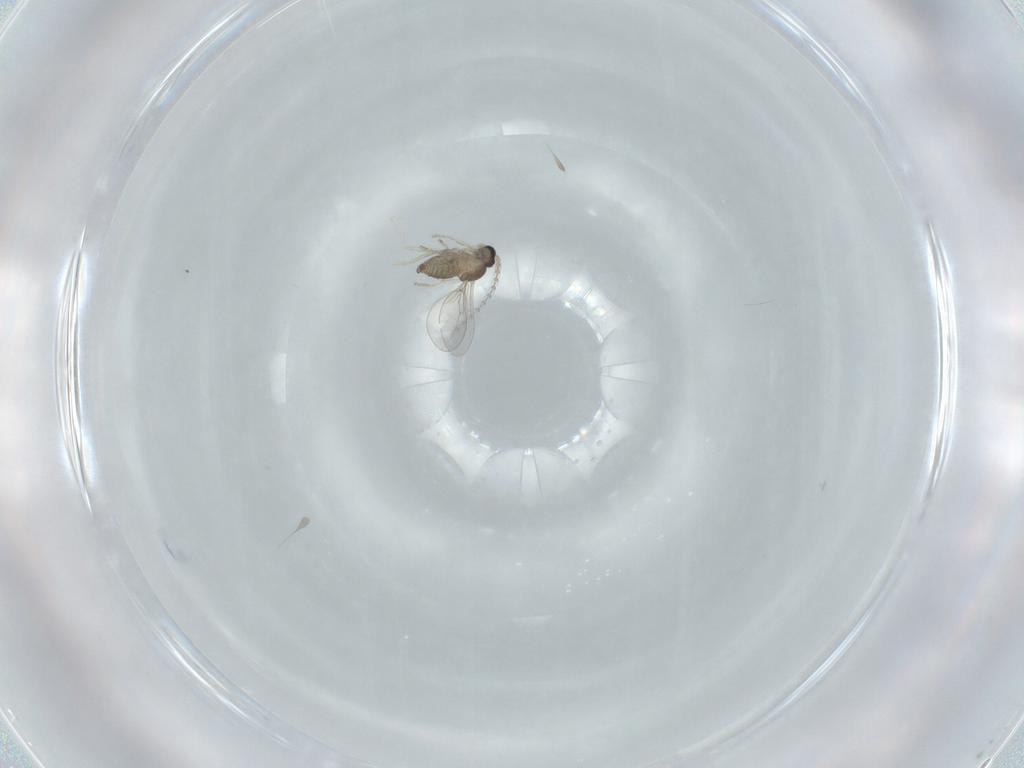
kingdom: Animalia
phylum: Arthropoda
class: Insecta
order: Diptera
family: Cecidomyiidae
